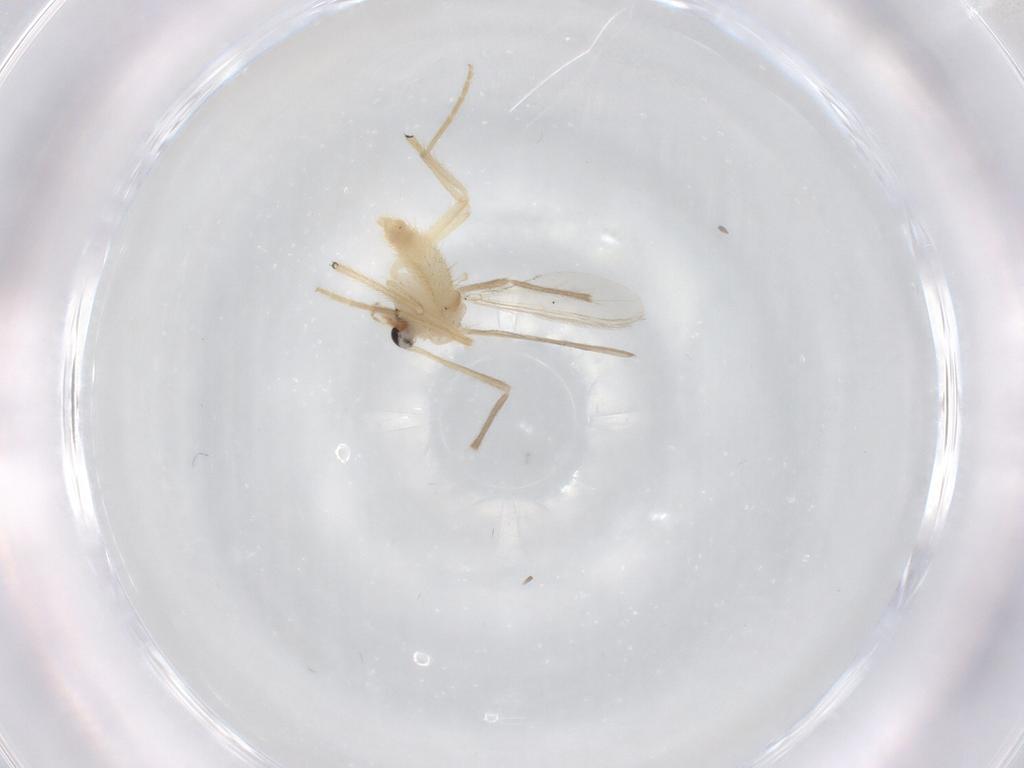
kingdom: Animalia
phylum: Arthropoda
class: Insecta
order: Diptera
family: Chironomidae
